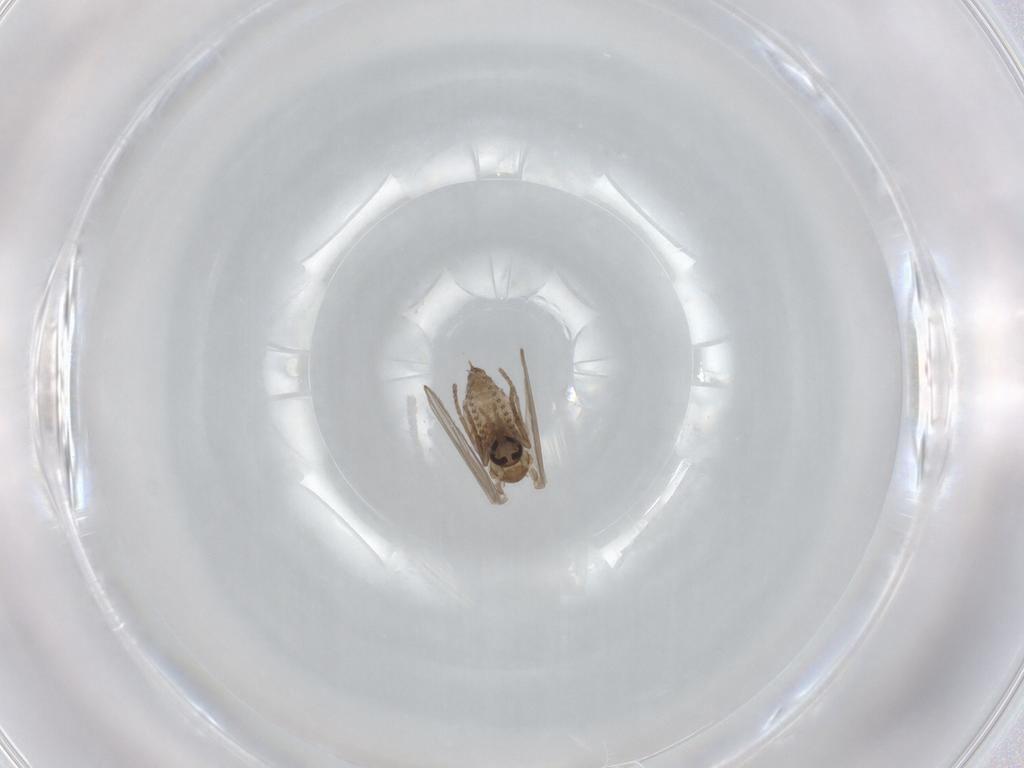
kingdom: Animalia
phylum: Arthropoda
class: Insecta
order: Diptera
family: Psychodidae
